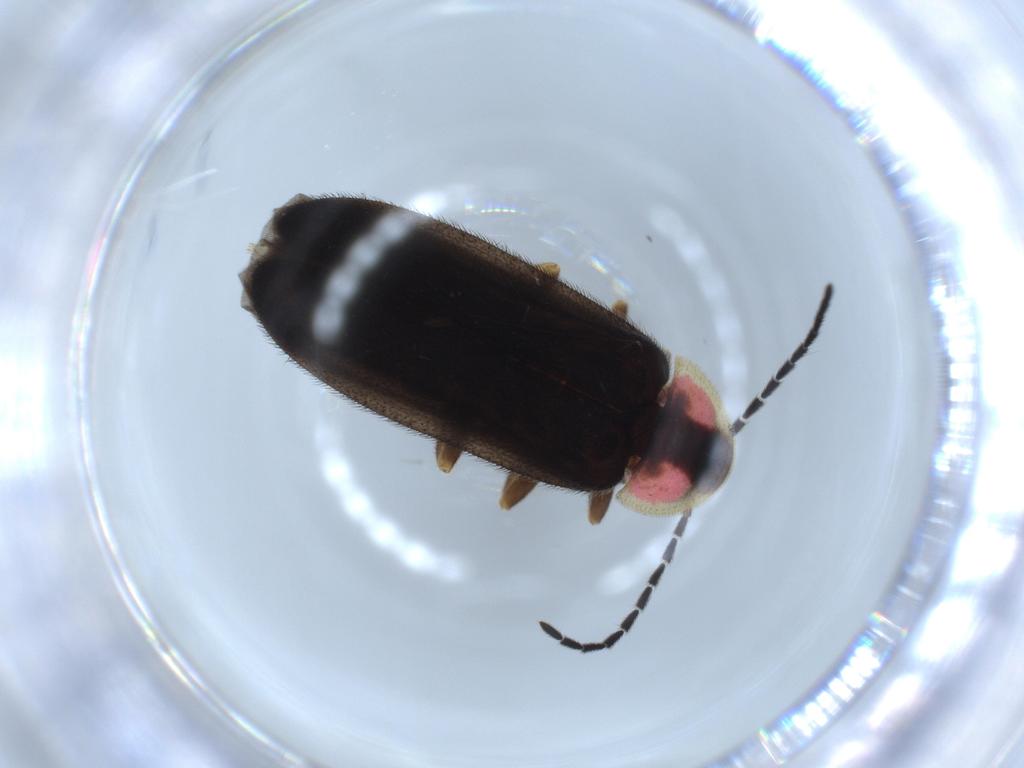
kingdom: Animalia
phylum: Arthropoda
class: Insecta
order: Coleoptera
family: Lampyridae
